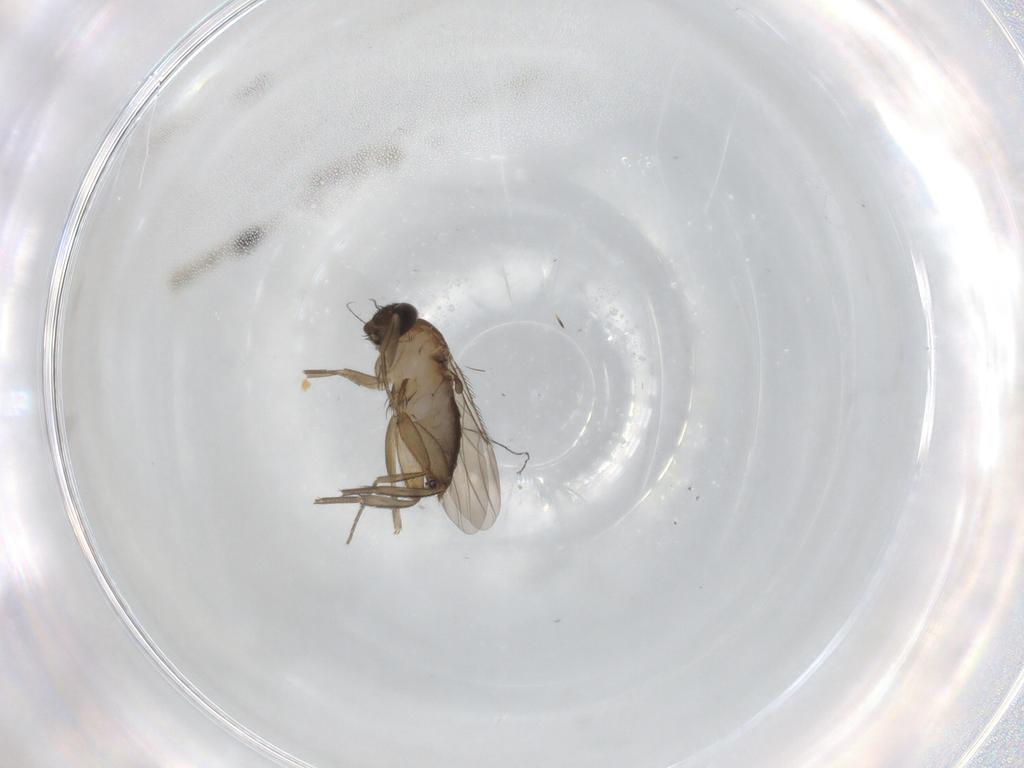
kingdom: Animalia
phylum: Arthropoda
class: Insecta
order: Diptera
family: Phoridae
